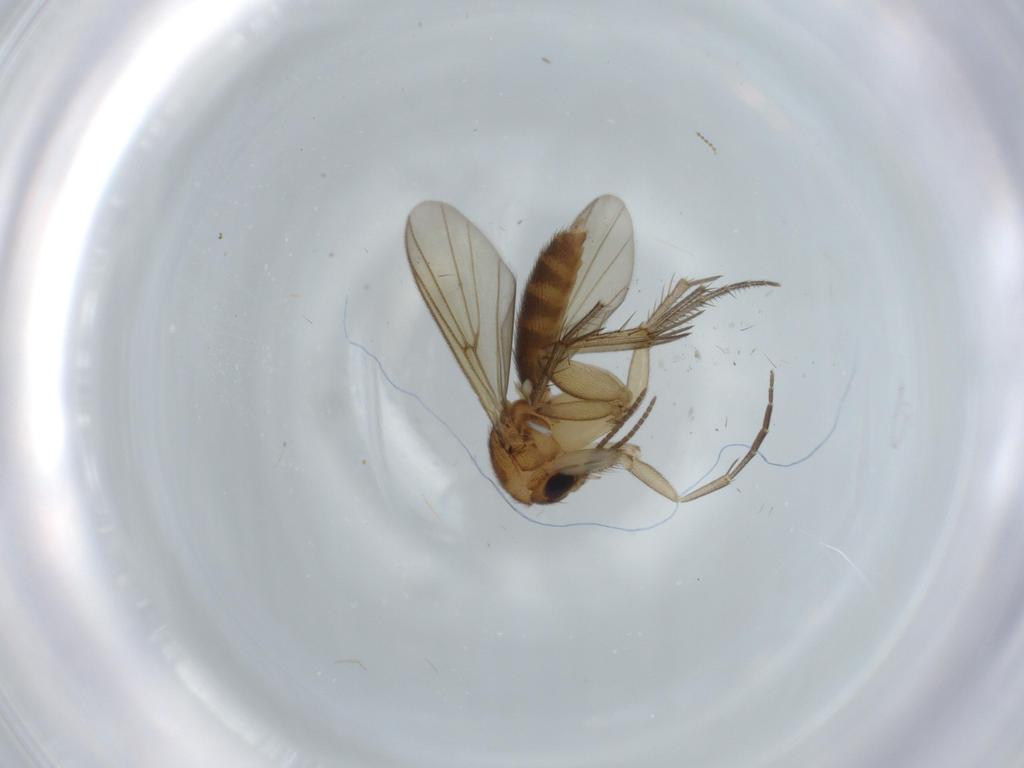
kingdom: Animalia
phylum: Arthropoda
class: Insecta
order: Diptera
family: Mycetophilidae
